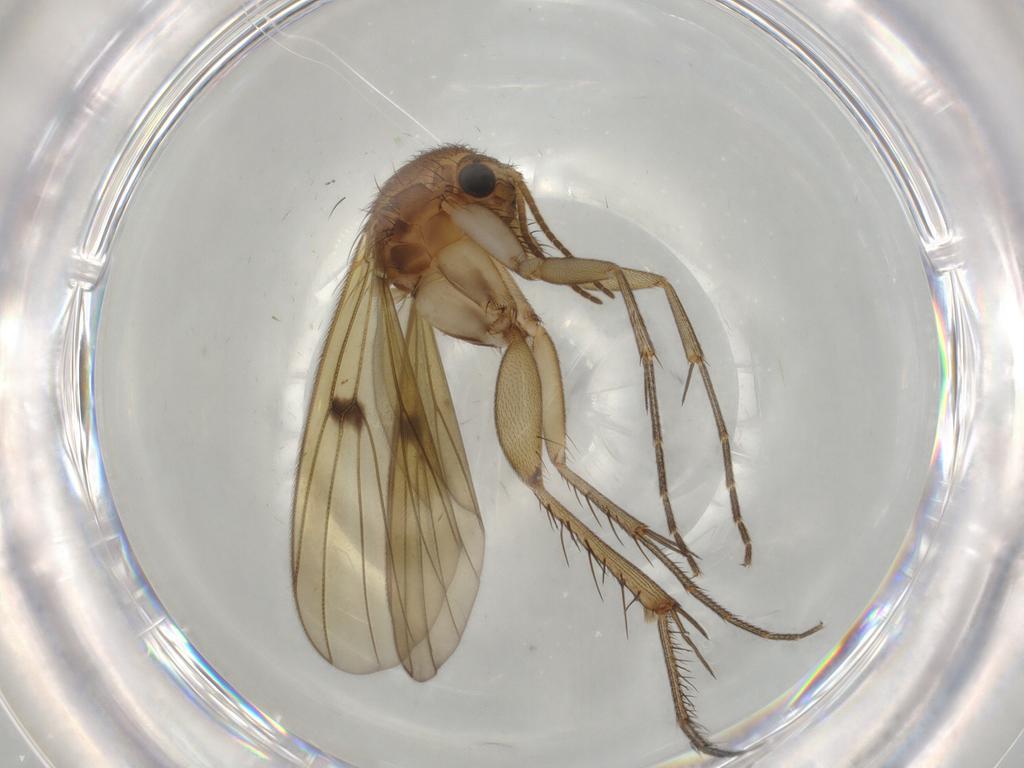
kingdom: Animalia
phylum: Arthropoda
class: Insecta
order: Diptera
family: Mycetophilidae
